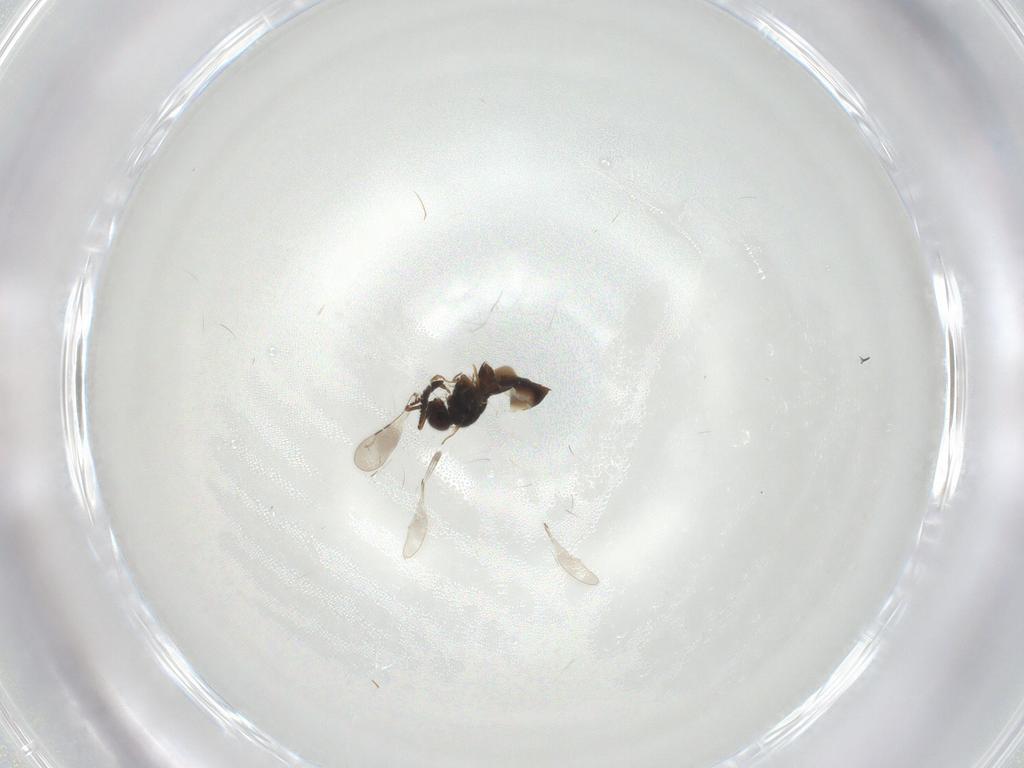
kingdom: Animalia
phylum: Arthropoda
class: Insecta
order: Hymenoptera
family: Ceraphronidae
